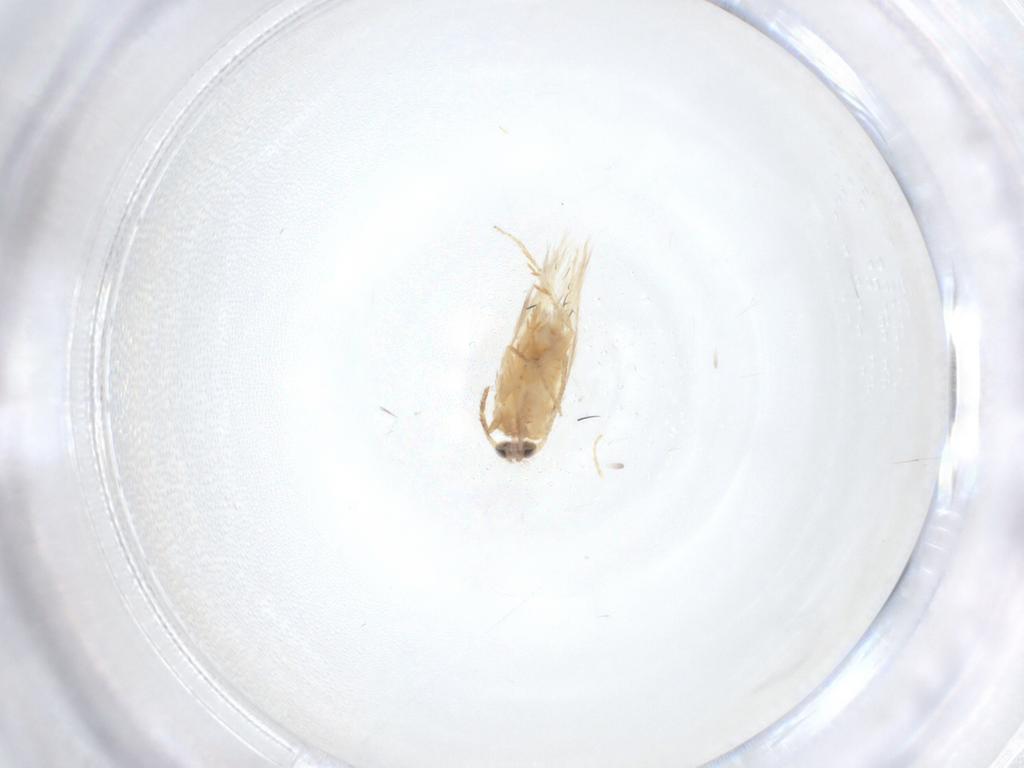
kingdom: Animalia
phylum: Arthropoda
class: Insecta
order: Lepidoptera
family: Nepticulidae
